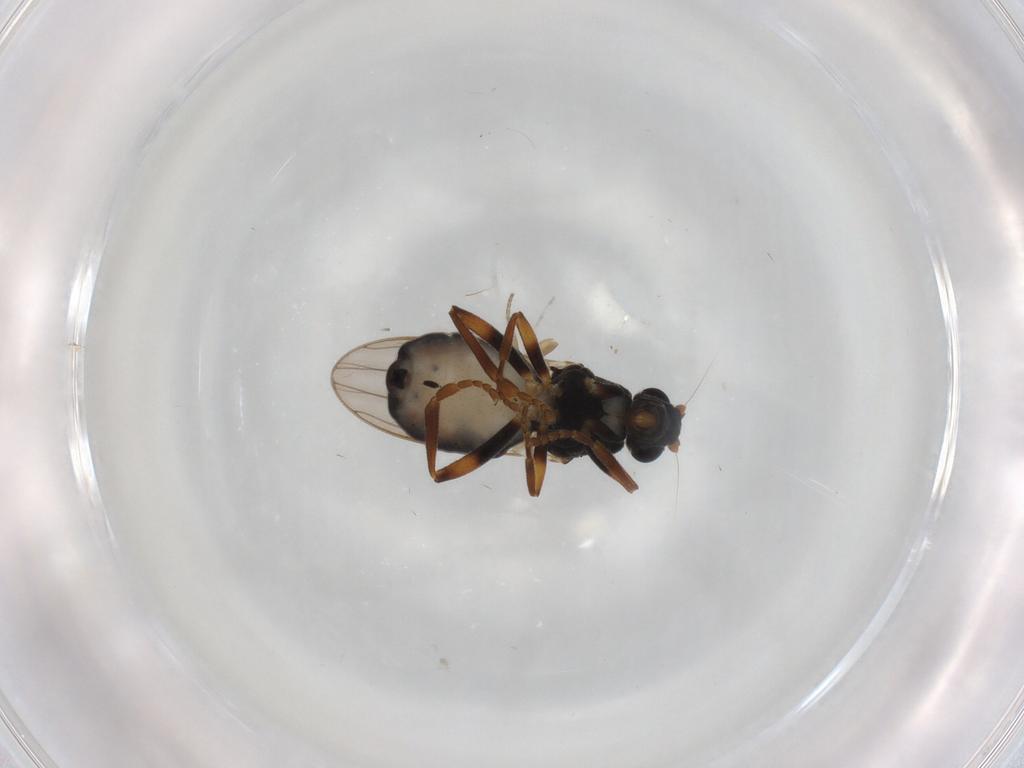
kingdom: Animalia
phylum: Arthropoda
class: Insecta
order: Diptera
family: Sphaeroceridae
